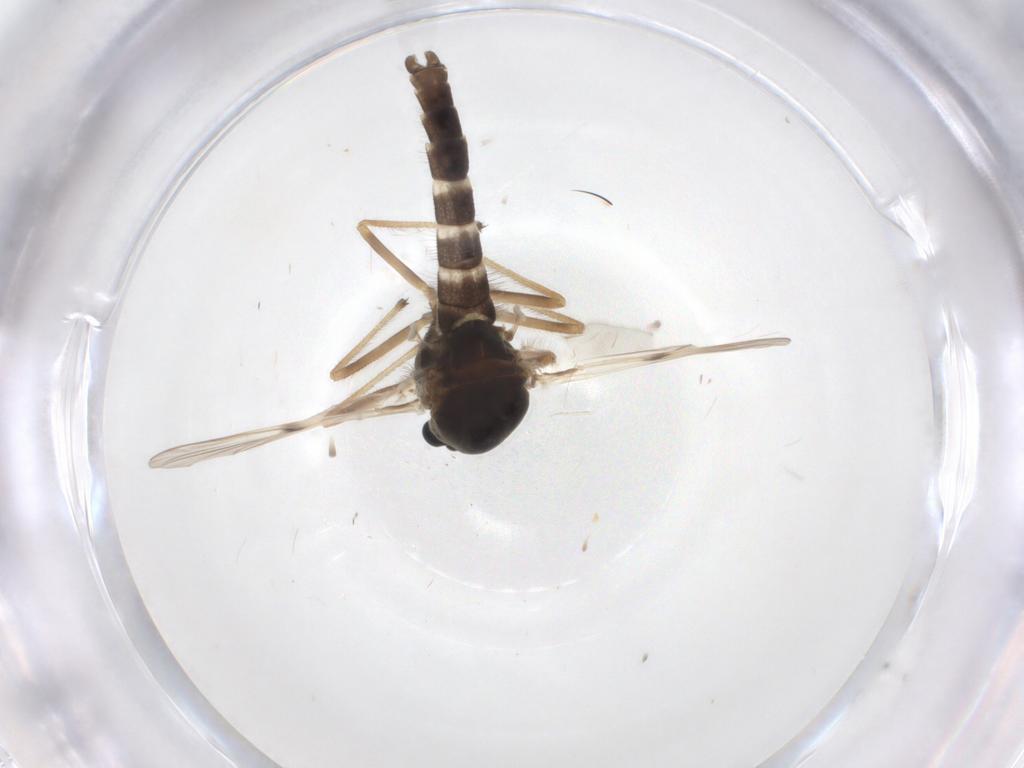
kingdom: Animalia
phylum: Arthropoda
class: Insecta
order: Diptera
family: Chironomidae
